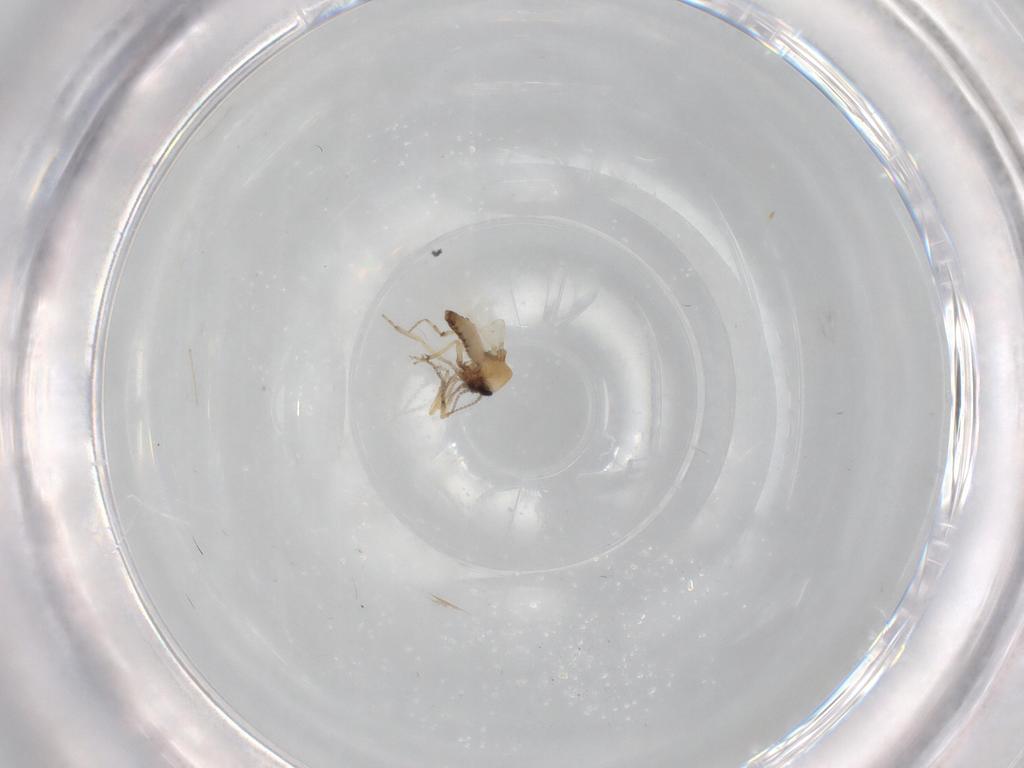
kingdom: Animalia
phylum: Arthropoda
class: Insecta
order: Diptera
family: Ceratopogonidae
